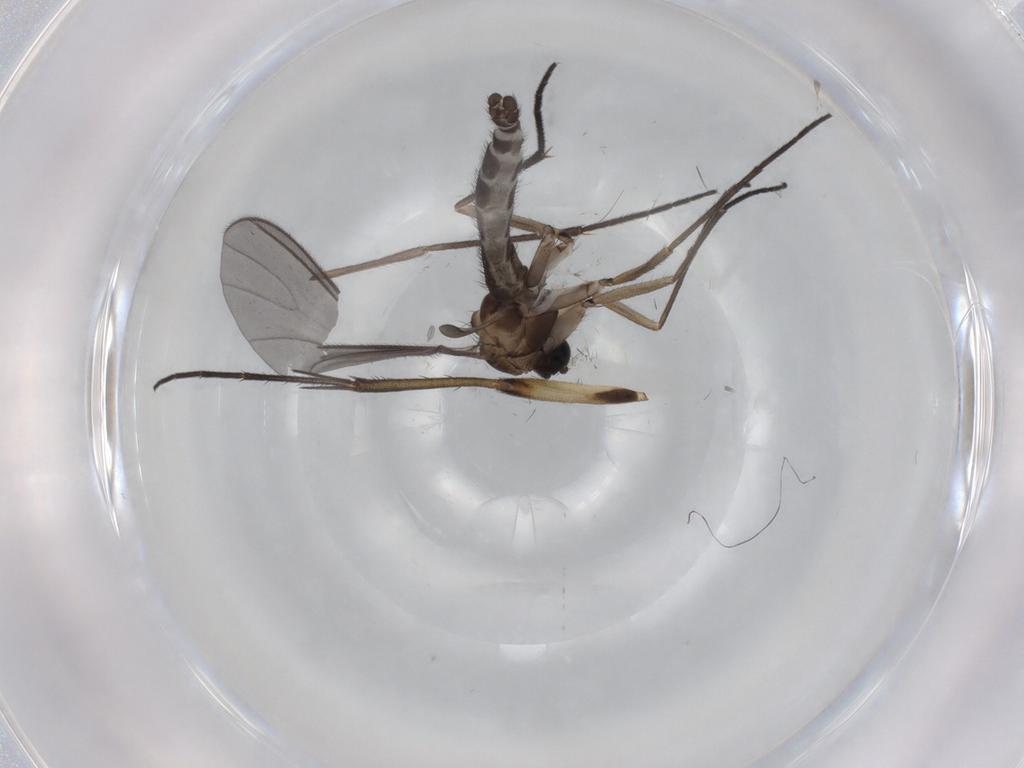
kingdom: Animalia
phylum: Arthropoda
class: Insecta
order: Diptera
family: Sciaridae
